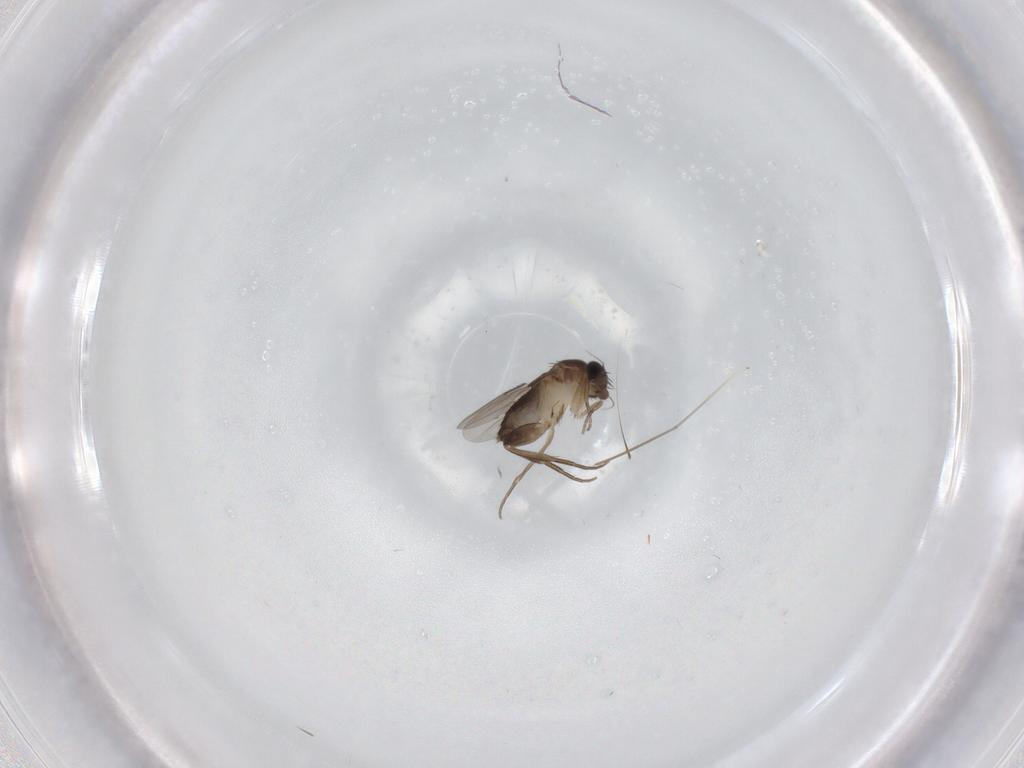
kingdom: Animalia
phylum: Arthropoda
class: Insecta
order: Diptera
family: Phoridae
